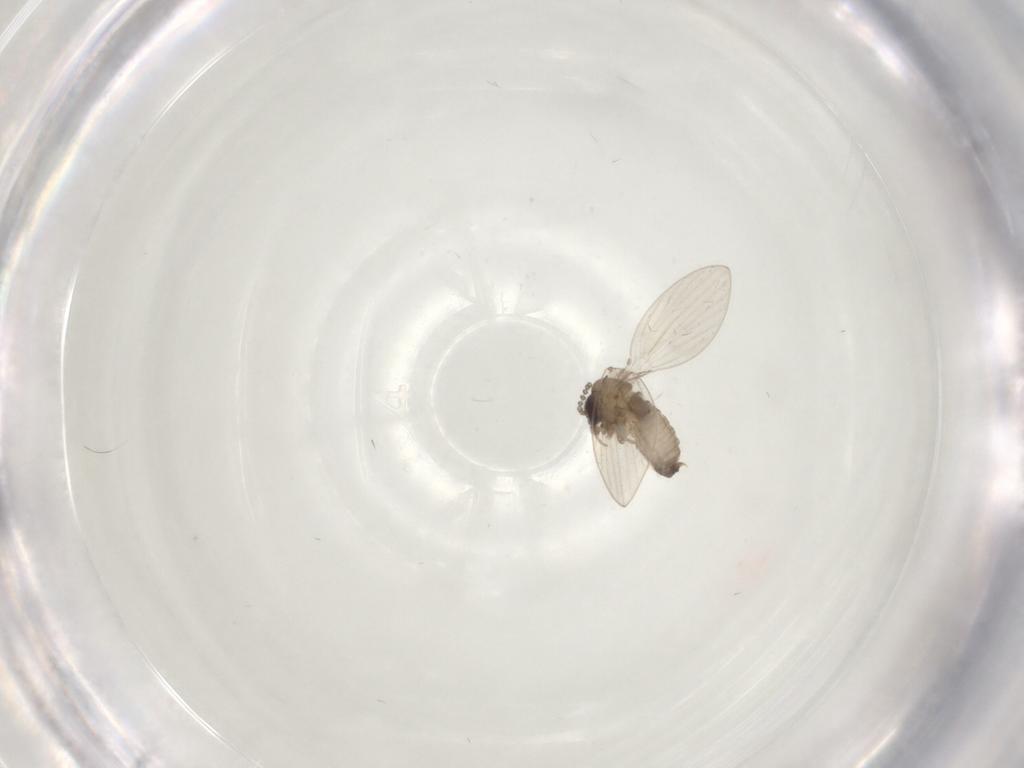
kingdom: Animalia
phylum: Arthropoda
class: Insecta
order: Diptera
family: Psychodidae
